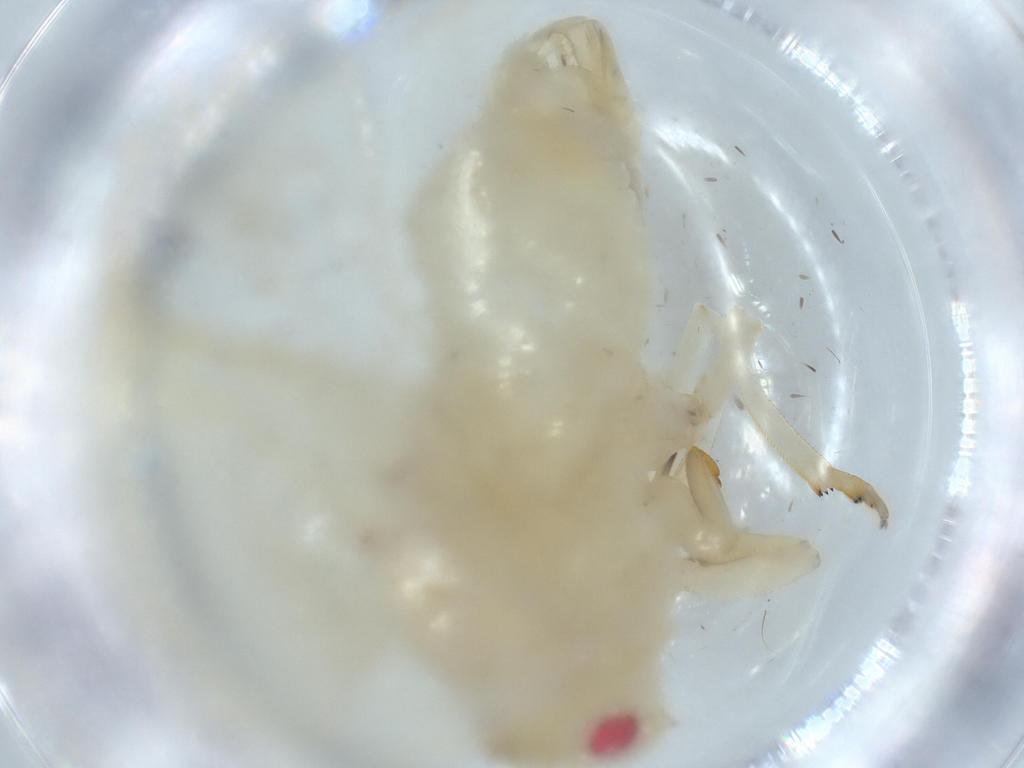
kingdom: Animalia
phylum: Arthropoda
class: Insecta
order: Hemiptera
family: Flatidae
